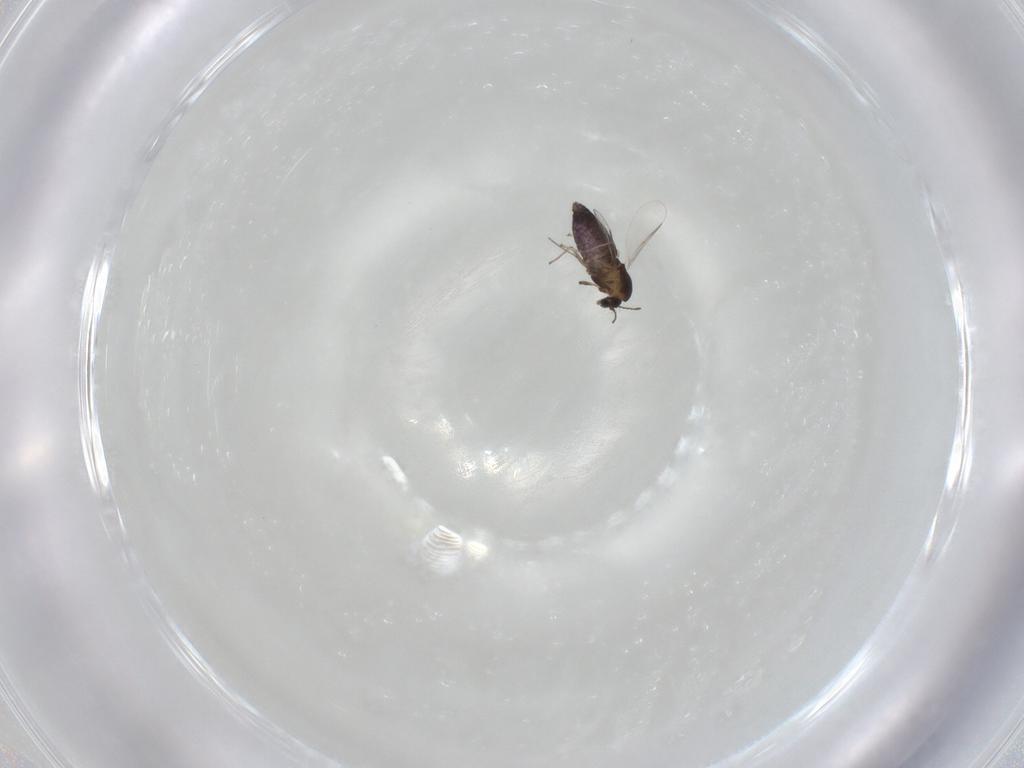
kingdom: Animalia
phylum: Arthropoda
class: Insecta
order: Diptera
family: Chironomidae
